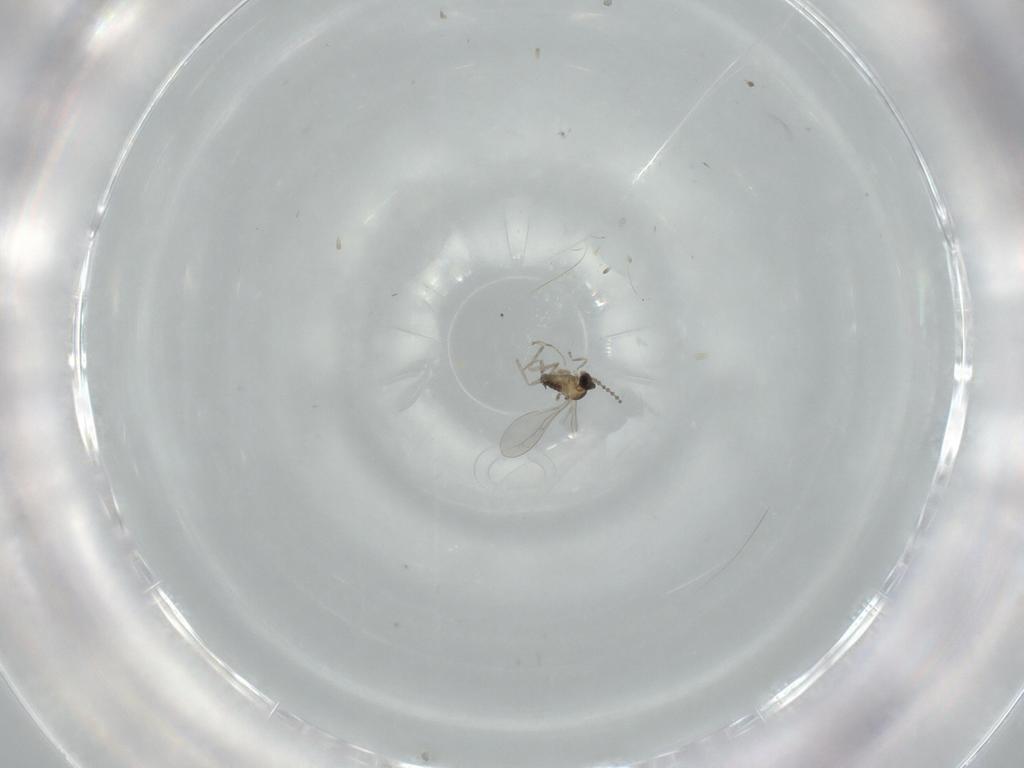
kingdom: Animalia
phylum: Arthropoda
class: Insecta
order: Diptera
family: Cecidomyiidae
